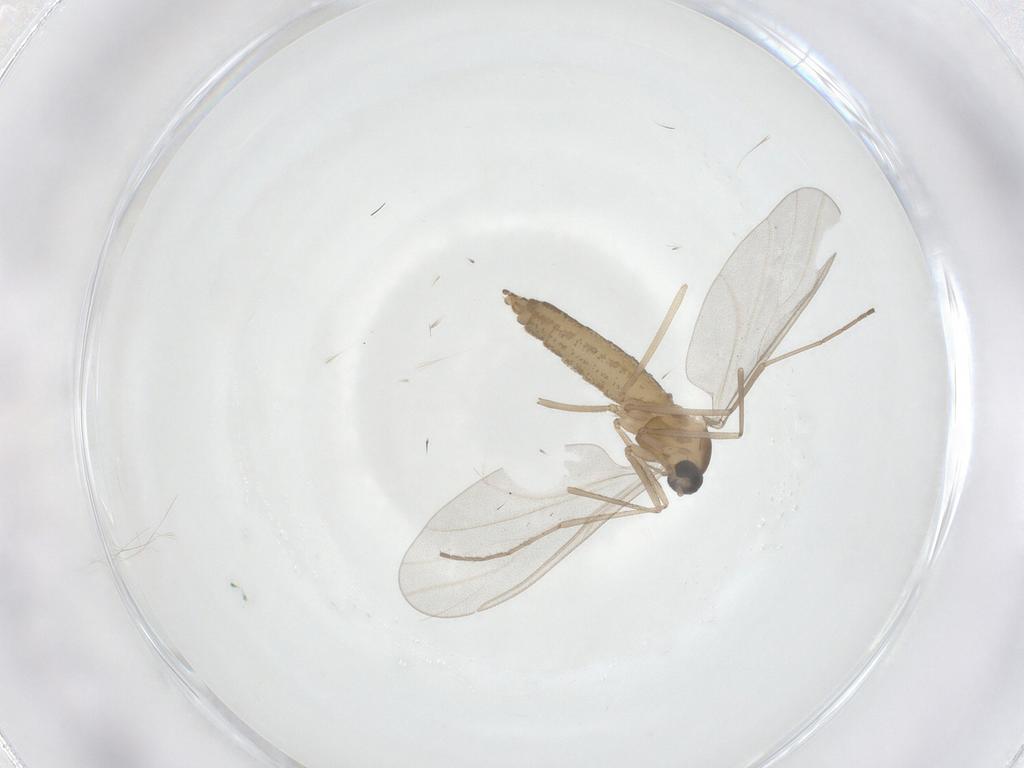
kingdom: Animalia
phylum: Arthropoda
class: Insecta
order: Diptera
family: Cecidomyiidae
